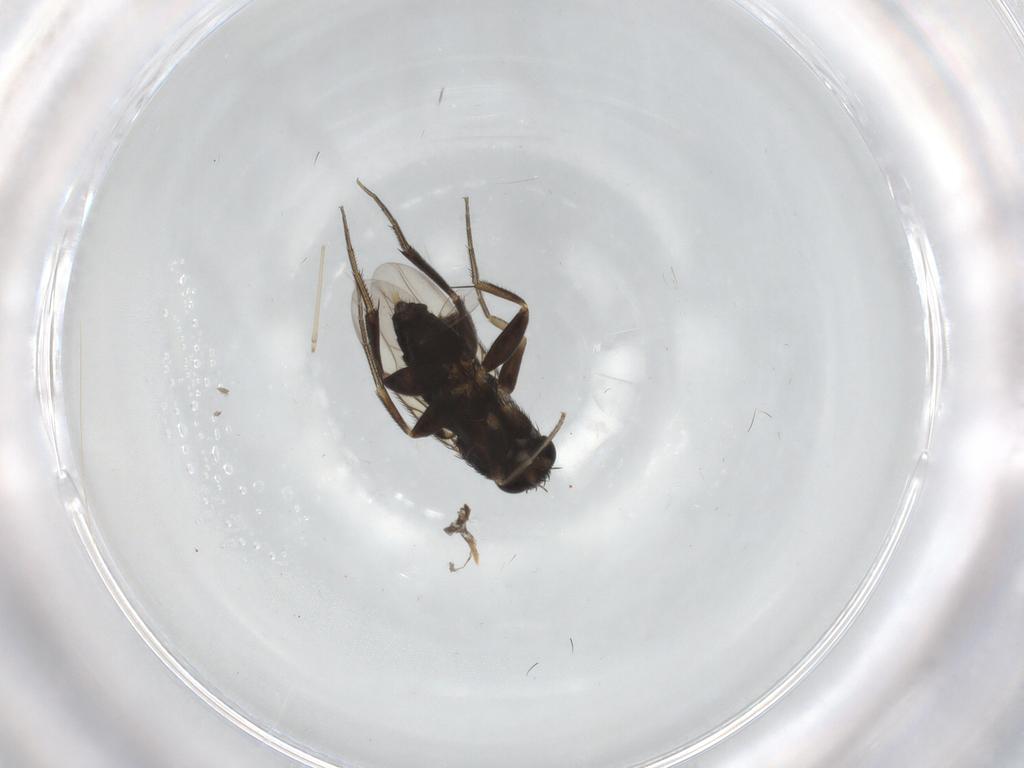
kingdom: Animalia
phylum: Arthropoda
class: Insecta
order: Diptera
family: Phoridae
